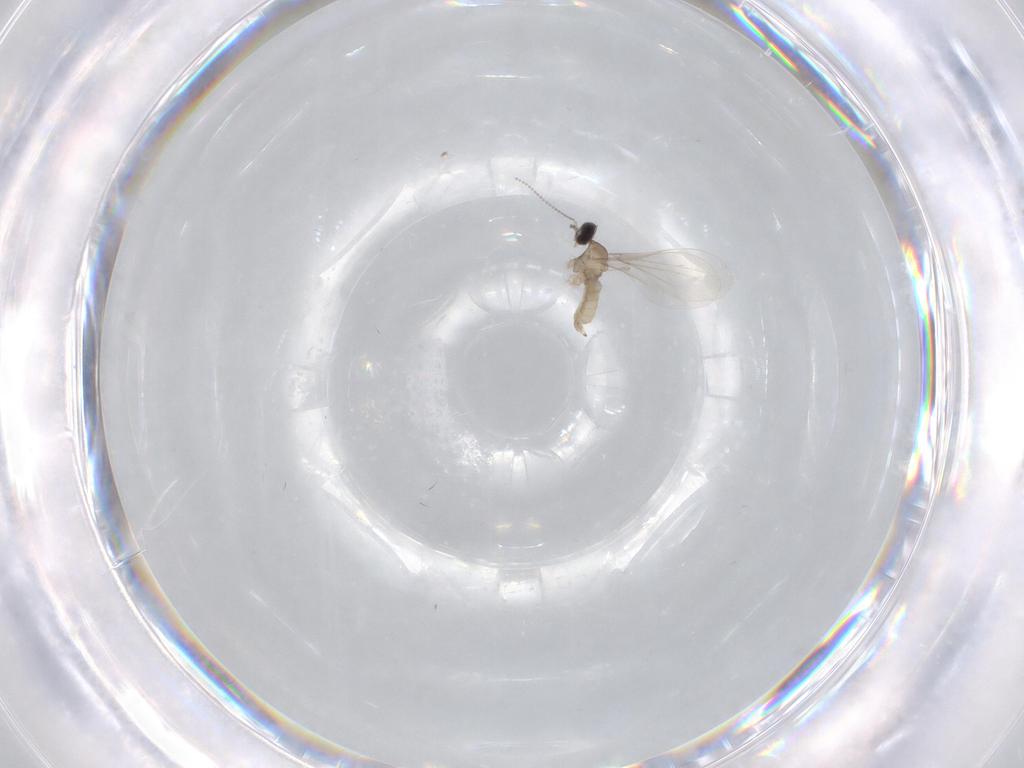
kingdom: Animalia
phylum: Arthropoda
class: Insecta
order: Diptera
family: Cecidomyiidae
